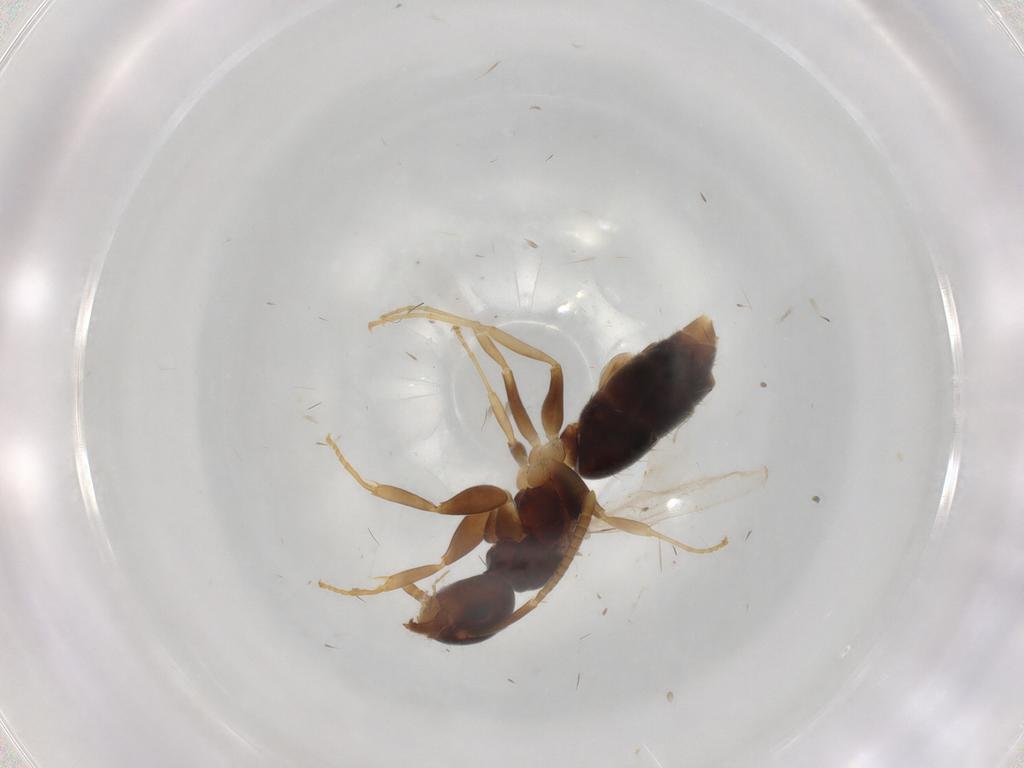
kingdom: Animalia
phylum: Arthropoda
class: Insecta
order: Hymenoptera
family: Formicidae
